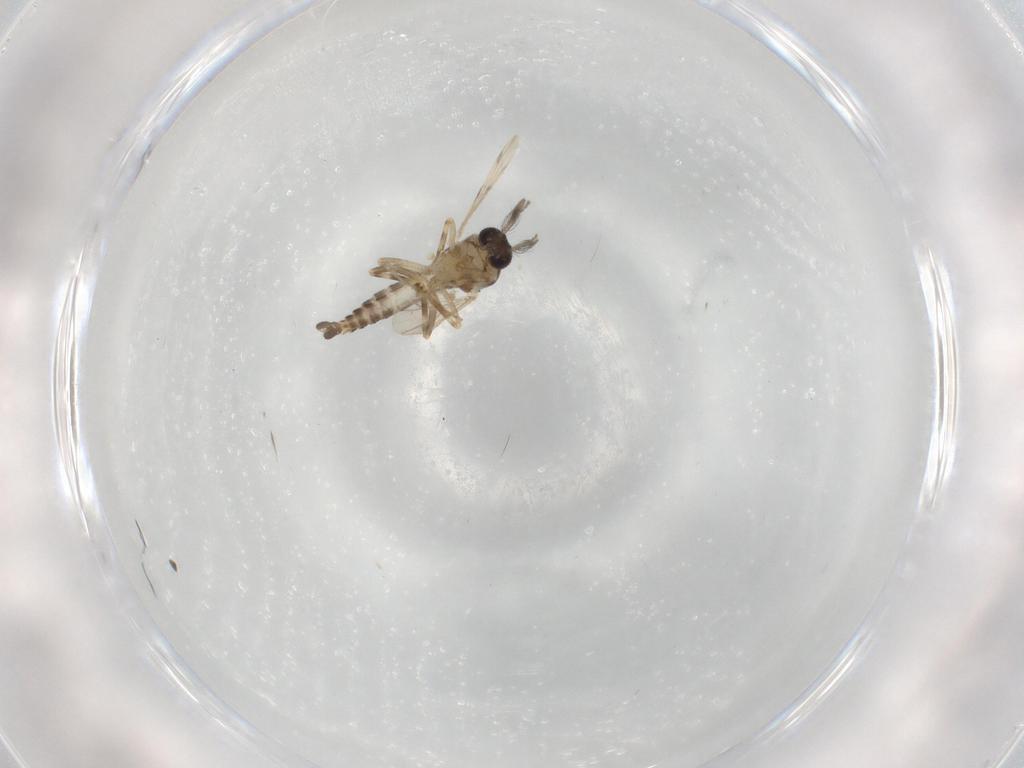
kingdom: Animalia
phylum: Arthropoda
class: Insecta
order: Diptera
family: Ceratopogonidae
